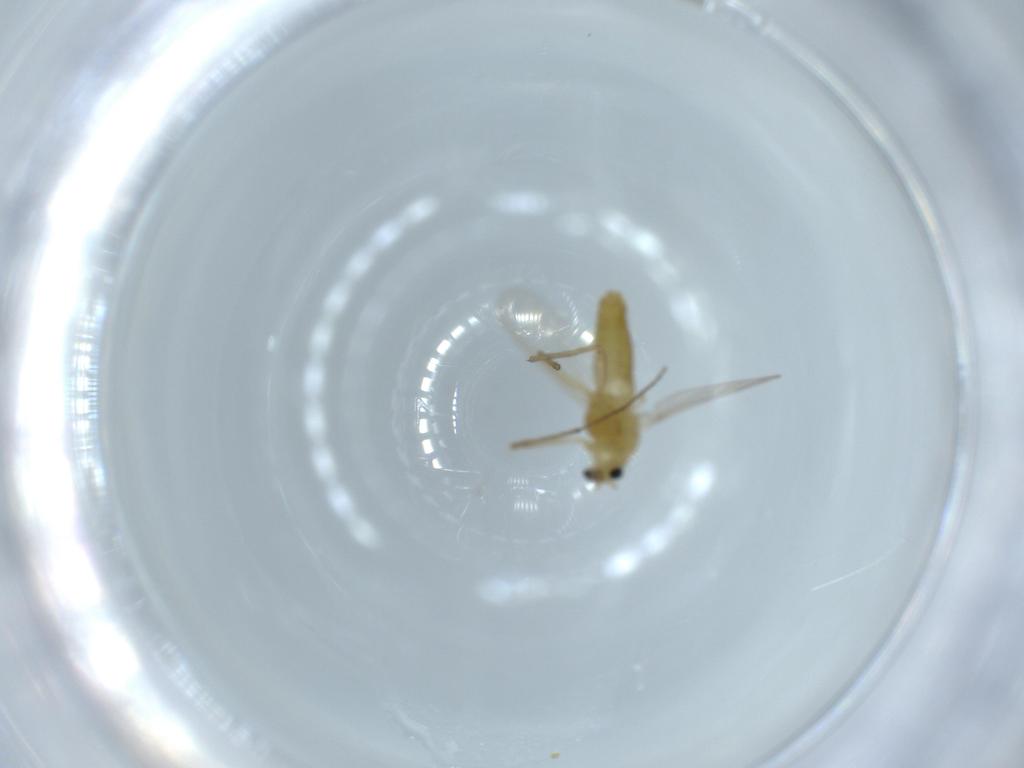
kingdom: Animalia
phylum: Arthropoda
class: Insecta
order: Diptera
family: Chironomidae
